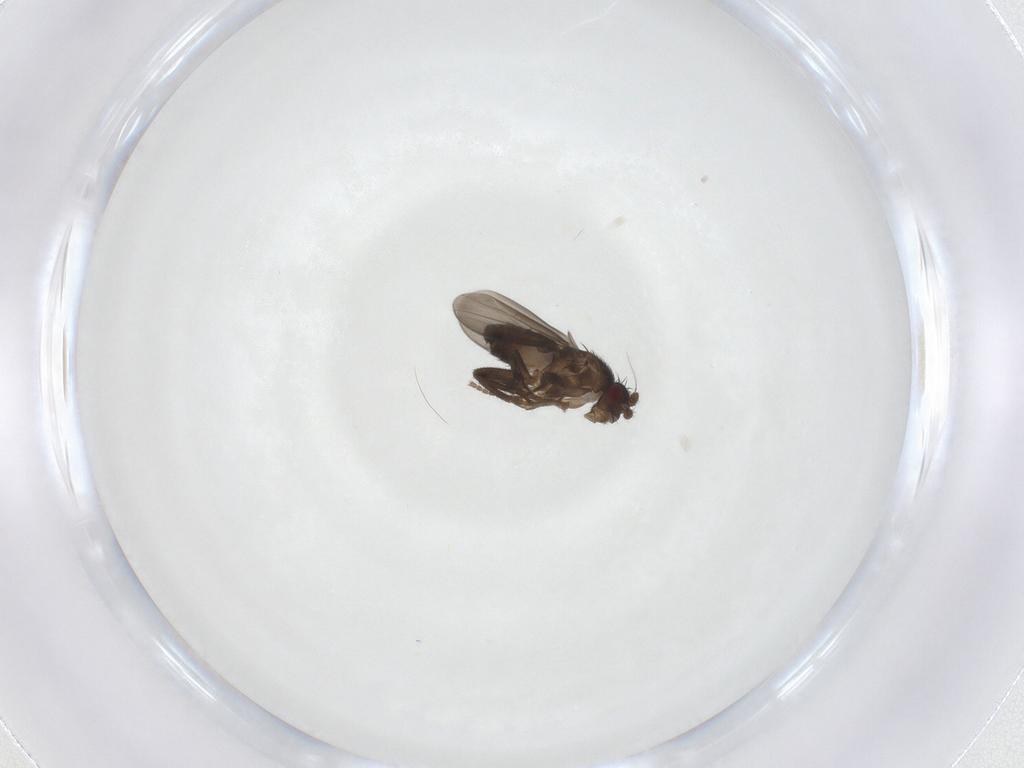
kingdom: Animalia
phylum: Arthropoda
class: Insecta
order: Diptera
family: Sphaeroceridae
